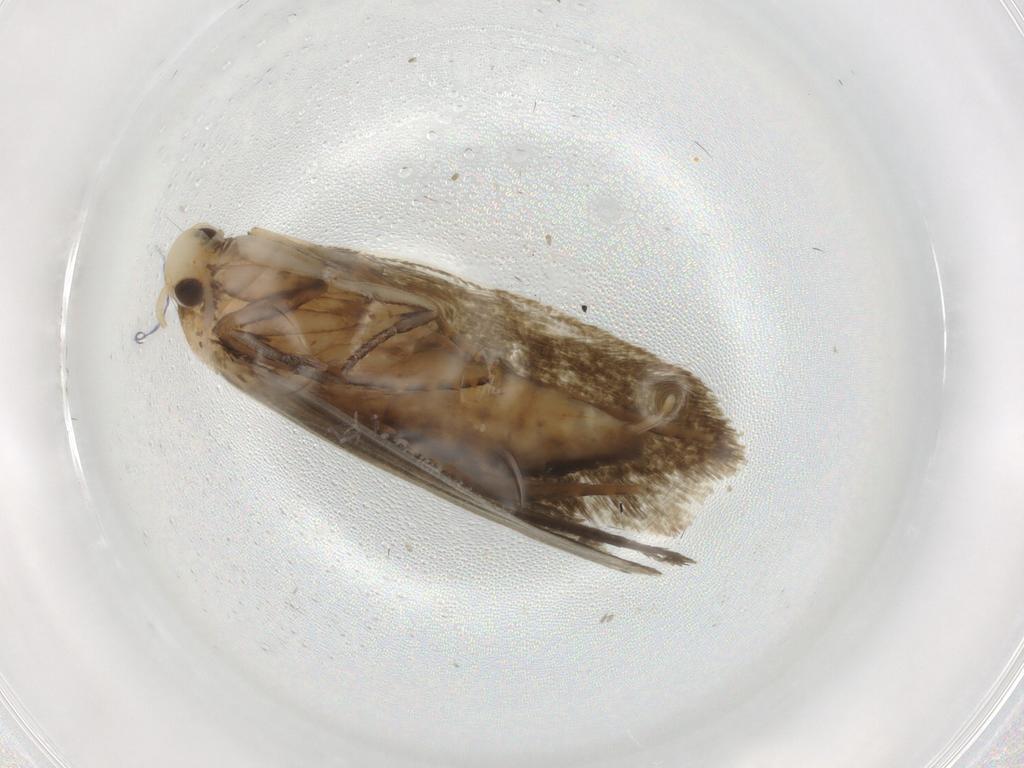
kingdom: Animalia
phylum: Arthropoda
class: Insecta
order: Lepidoptera
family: Pieridae
